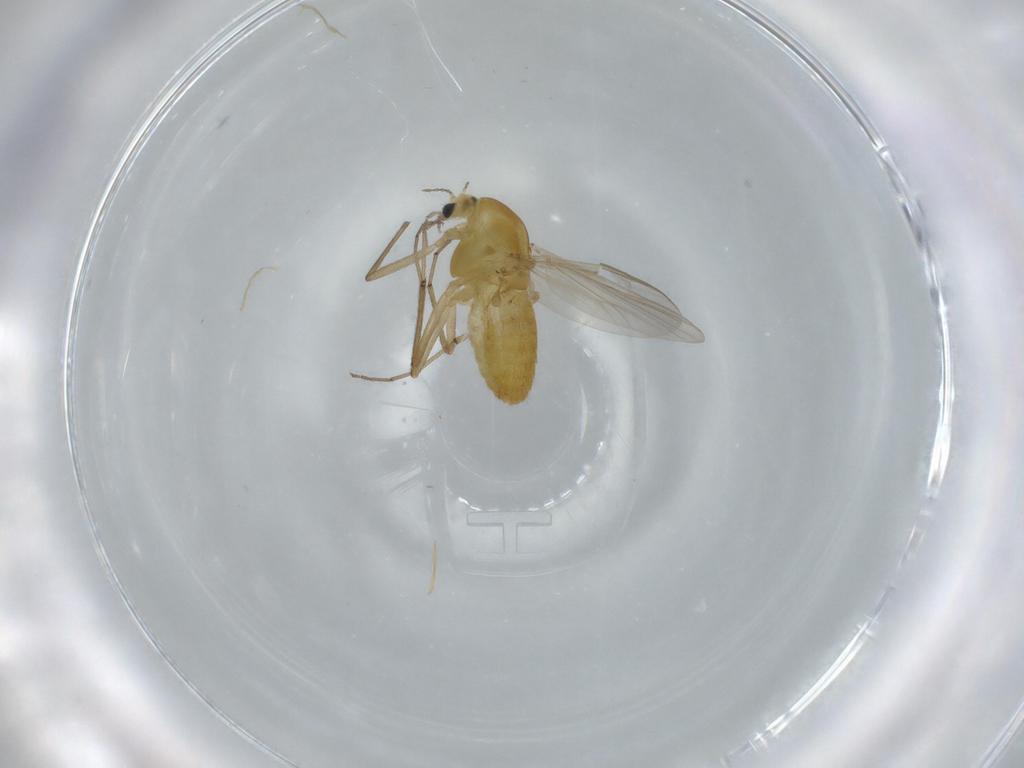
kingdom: Animalia
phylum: Arthropoda
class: Insecta
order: Diptera
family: Chironomidae
